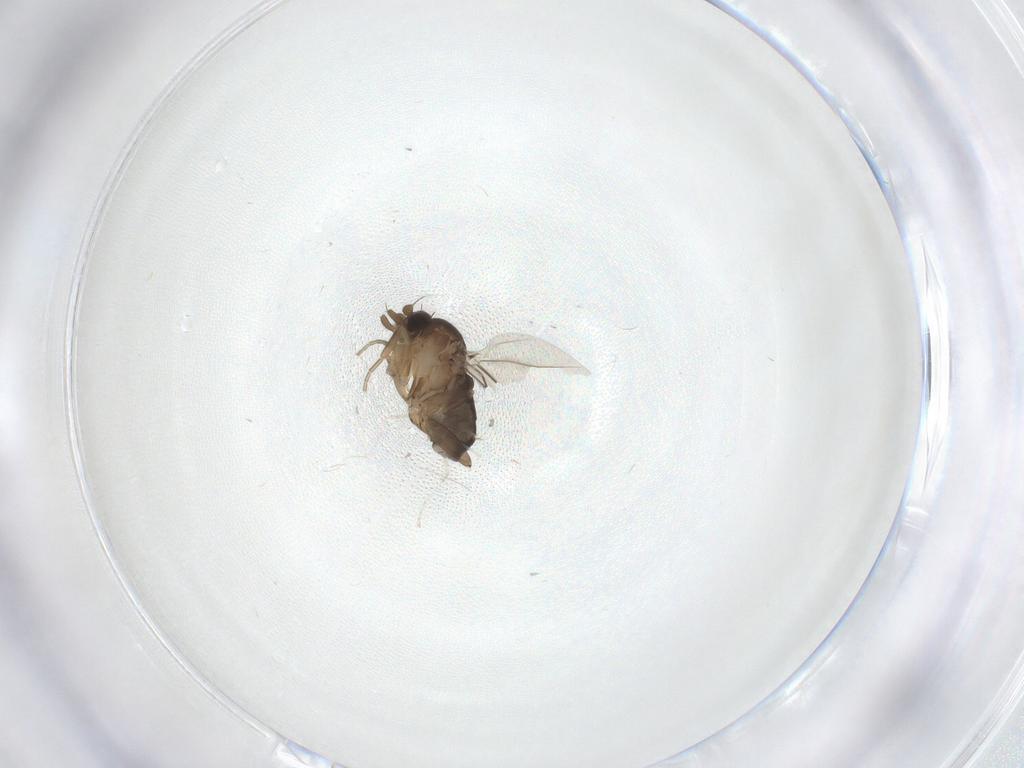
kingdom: Animalia
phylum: Arthropoda
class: Insecta
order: Diptera
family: Phoridae
